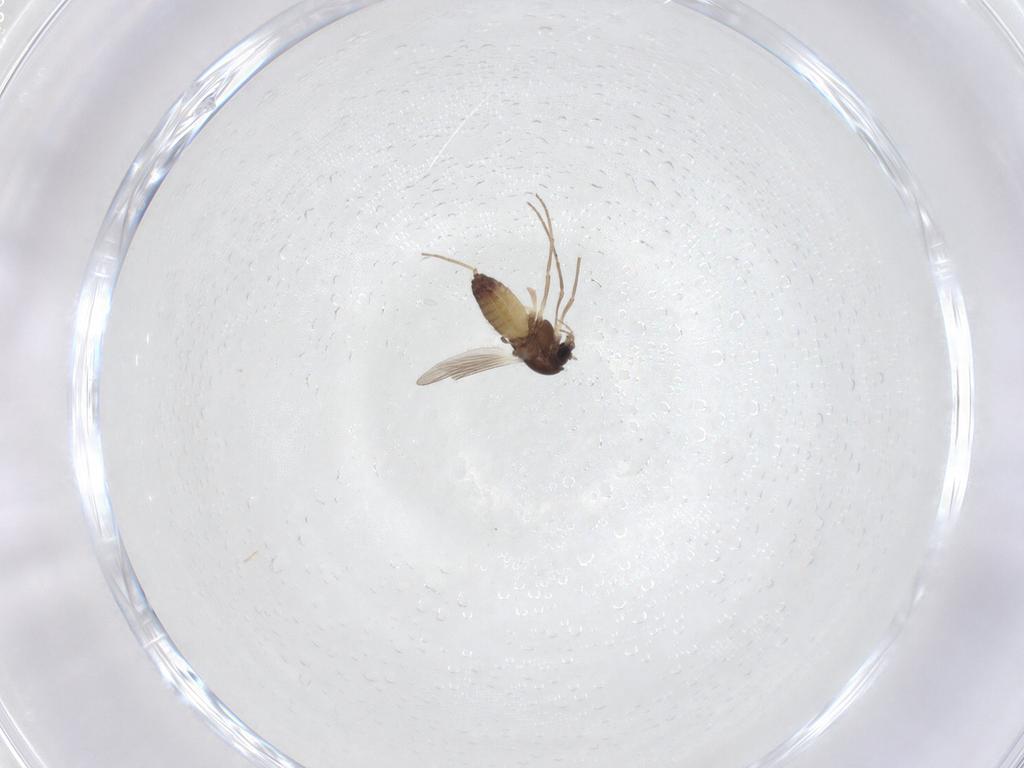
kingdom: Animalia
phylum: Arthropoda
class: Insecta
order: Diptera
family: Chironomidae
